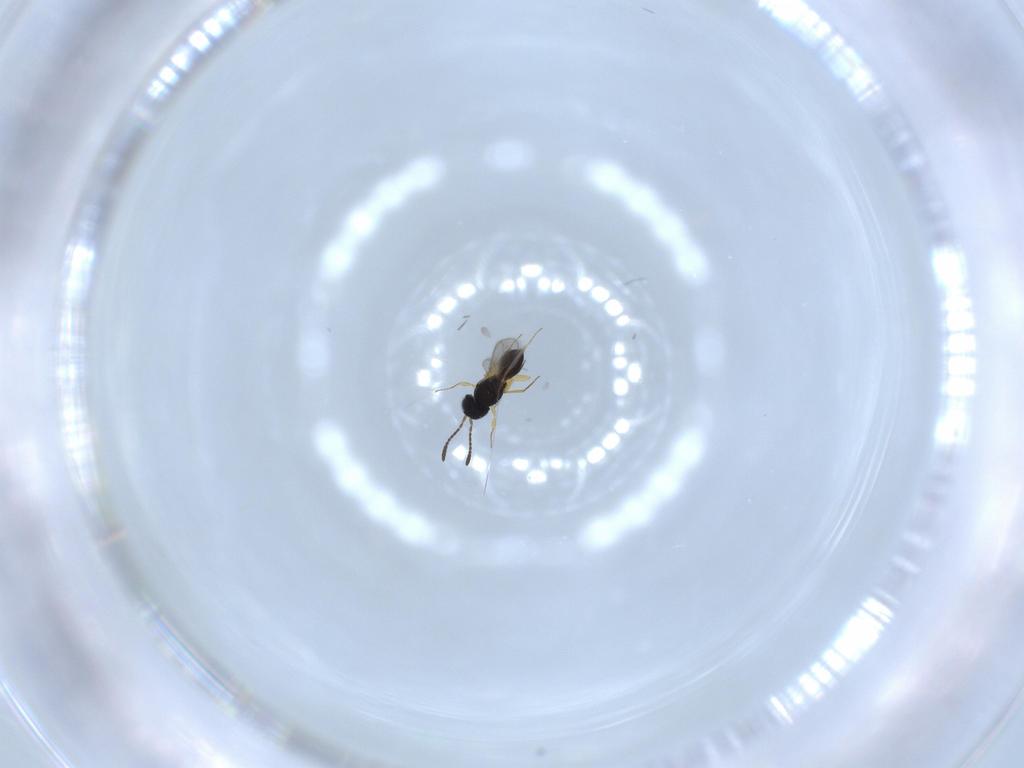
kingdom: Animalia
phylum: Arthropoda
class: Insecta
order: Hymenoptera
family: Scelionidae
